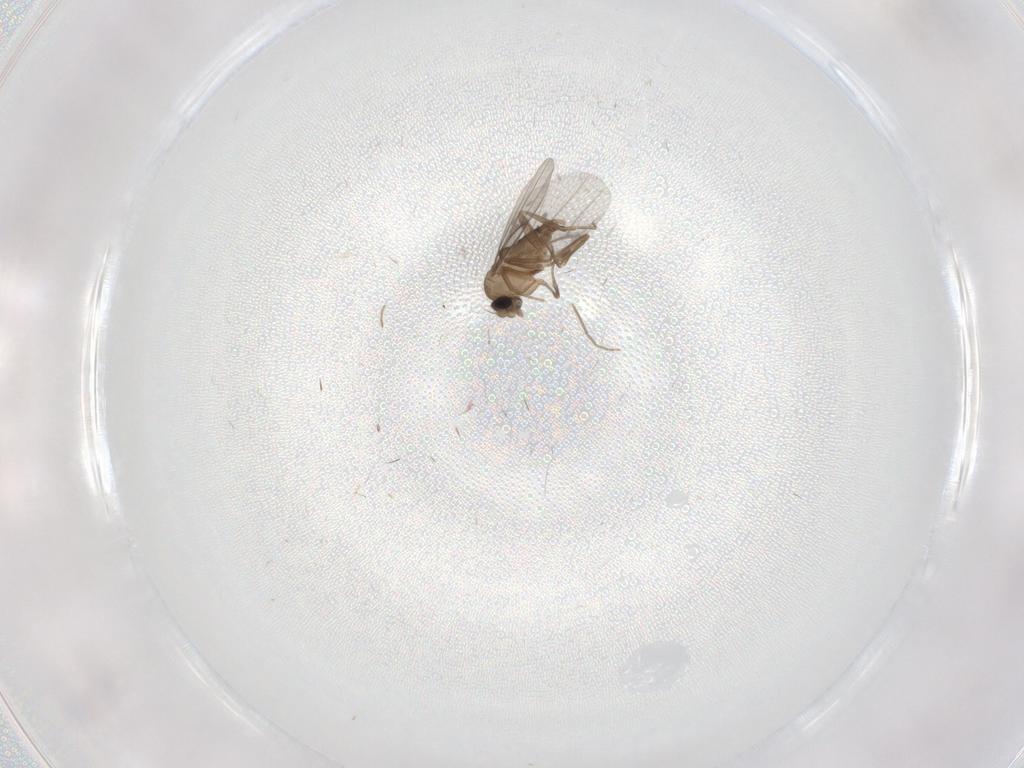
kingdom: Animalia
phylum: Arthropoda
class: Insecta
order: Diptera
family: Chironomidae
